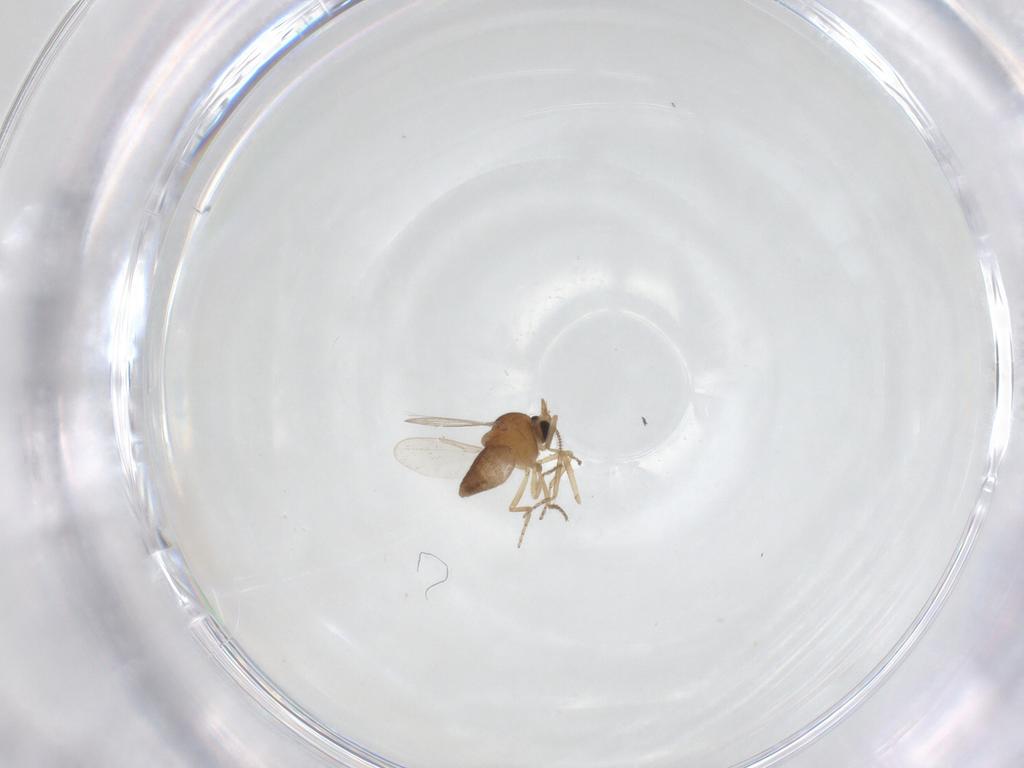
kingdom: Animalia
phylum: Arthropoda
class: Insecta
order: Diptera
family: Ceratopogonidae
